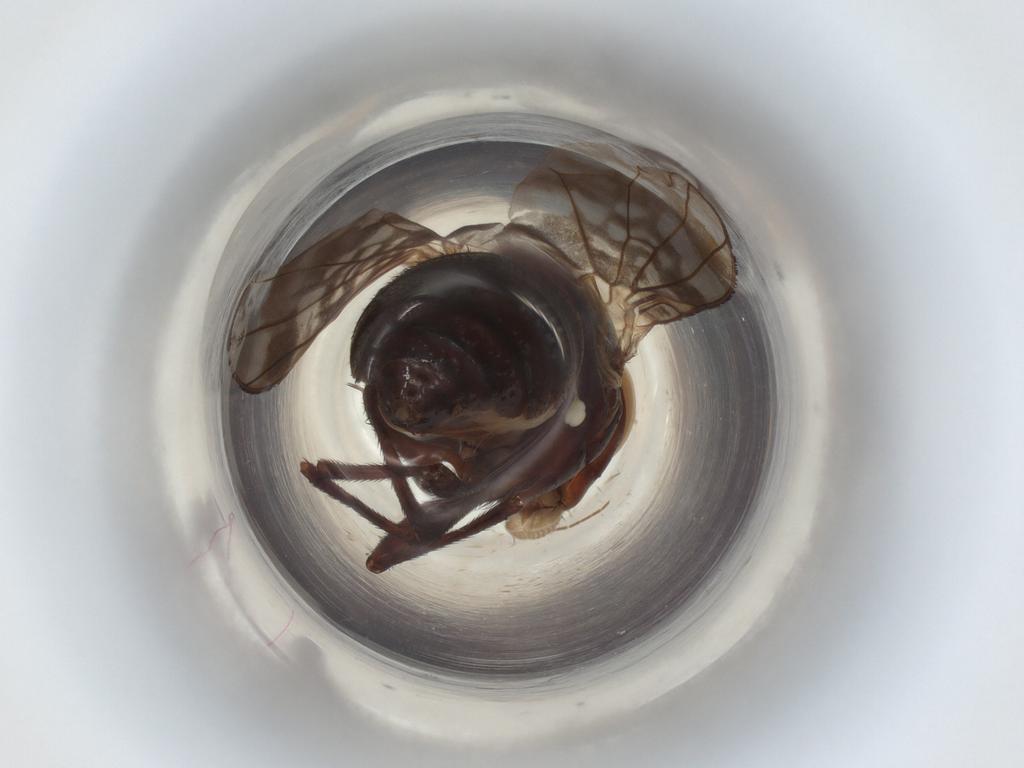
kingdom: Animalia
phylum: Arthropoda
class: Insecta
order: Diptera
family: Sciaridae
